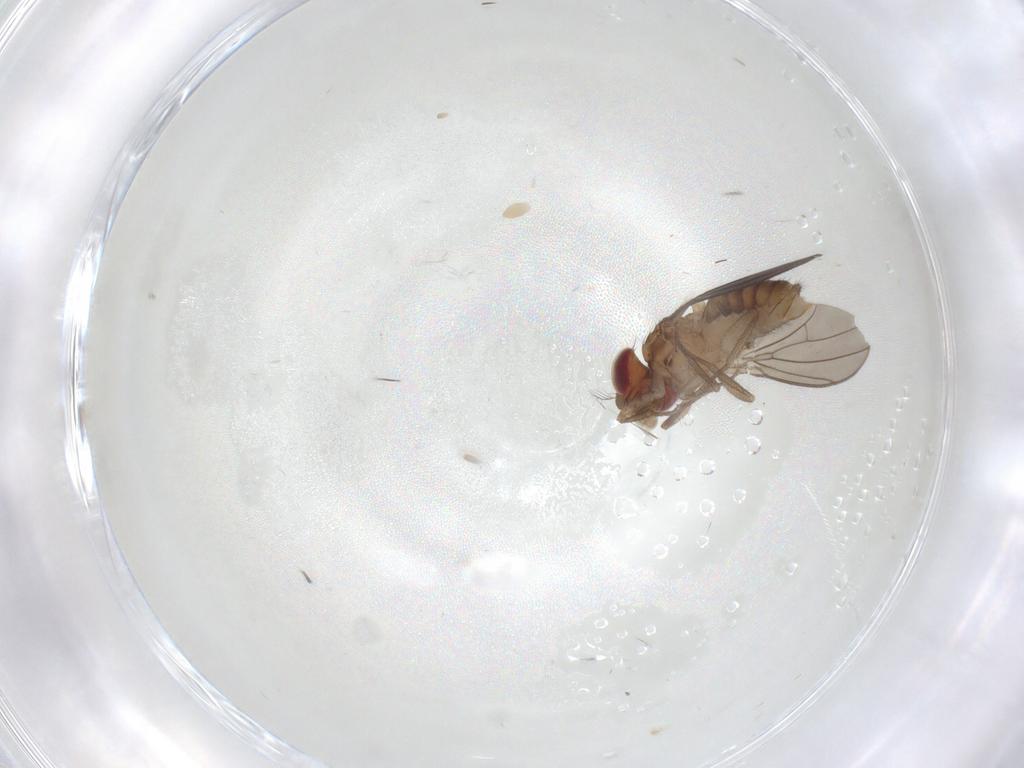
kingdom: Animalia
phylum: Arthropoda
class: Insecta
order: Diptera
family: Drosophilidae
